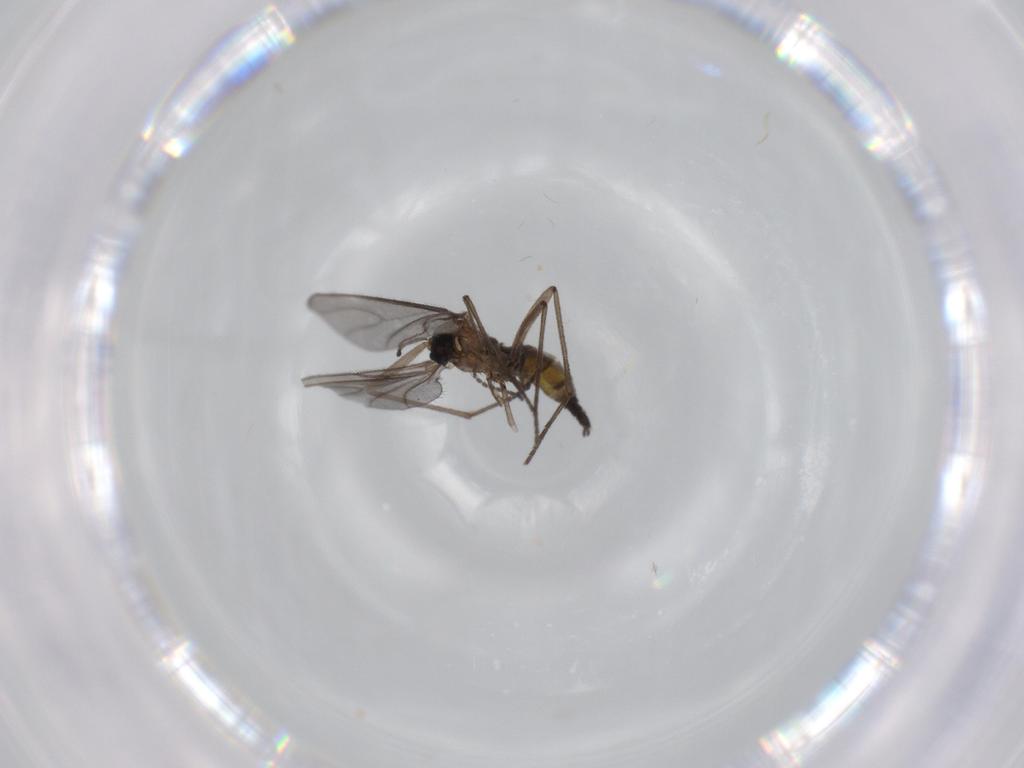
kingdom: Animalia
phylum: Arthropoda
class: Insecta
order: Diptera
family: Sciaridae
